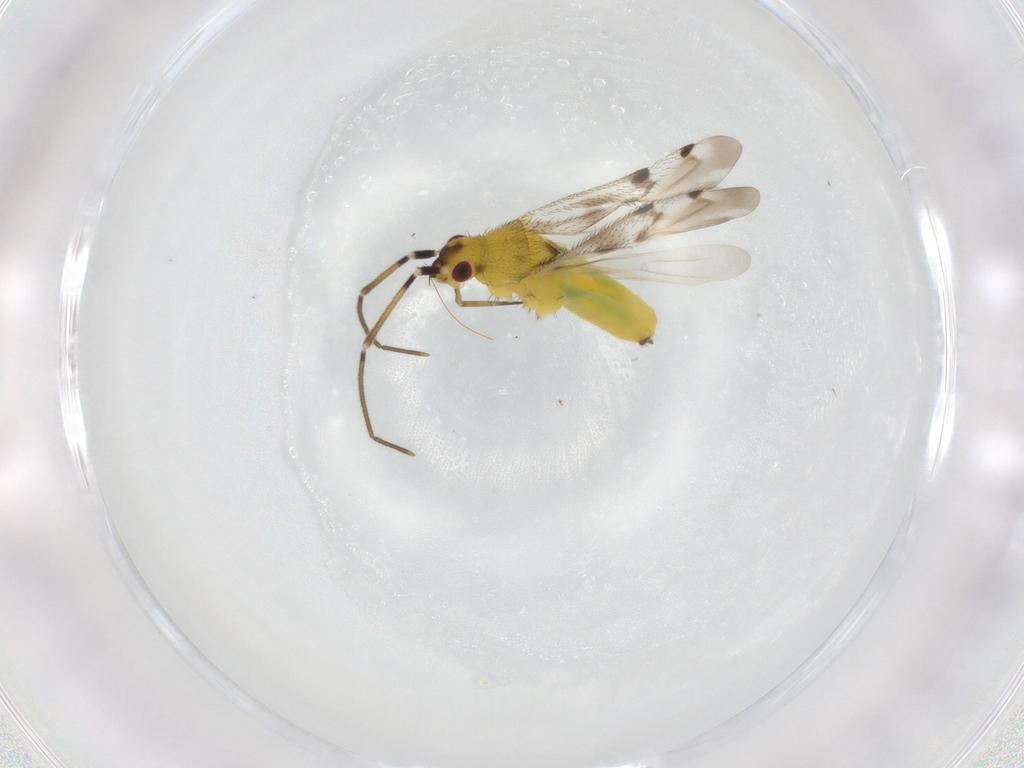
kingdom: Animalia
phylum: Arthropoda
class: Insecta
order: Hemiptera
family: Miridae
